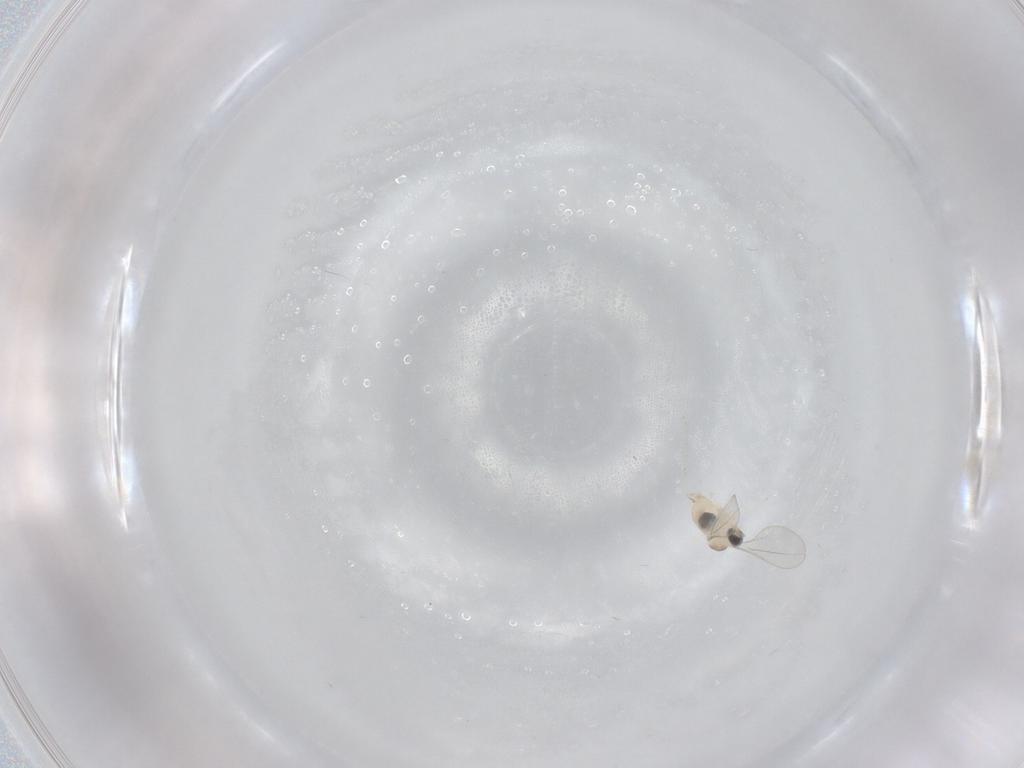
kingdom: Animalia
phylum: Arthropoda
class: Insecta
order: Diptera
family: Cecidomyiidae
